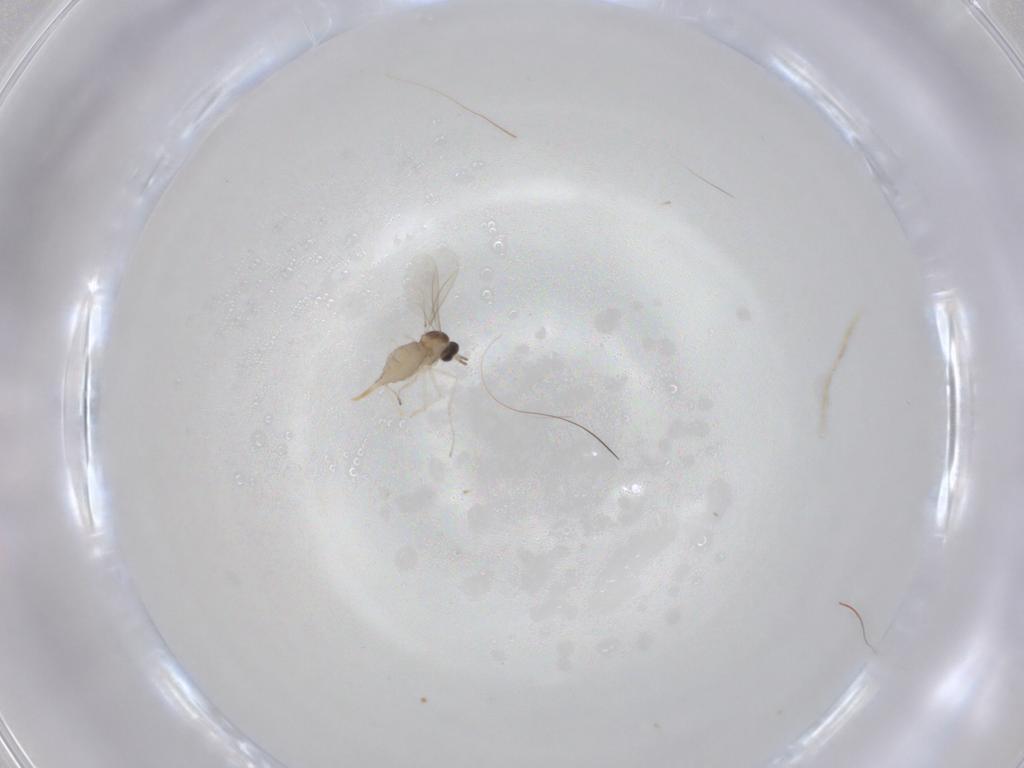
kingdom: Animalia
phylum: Arthropoda
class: Insecta
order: Diptera
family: Cecidomyiidae
